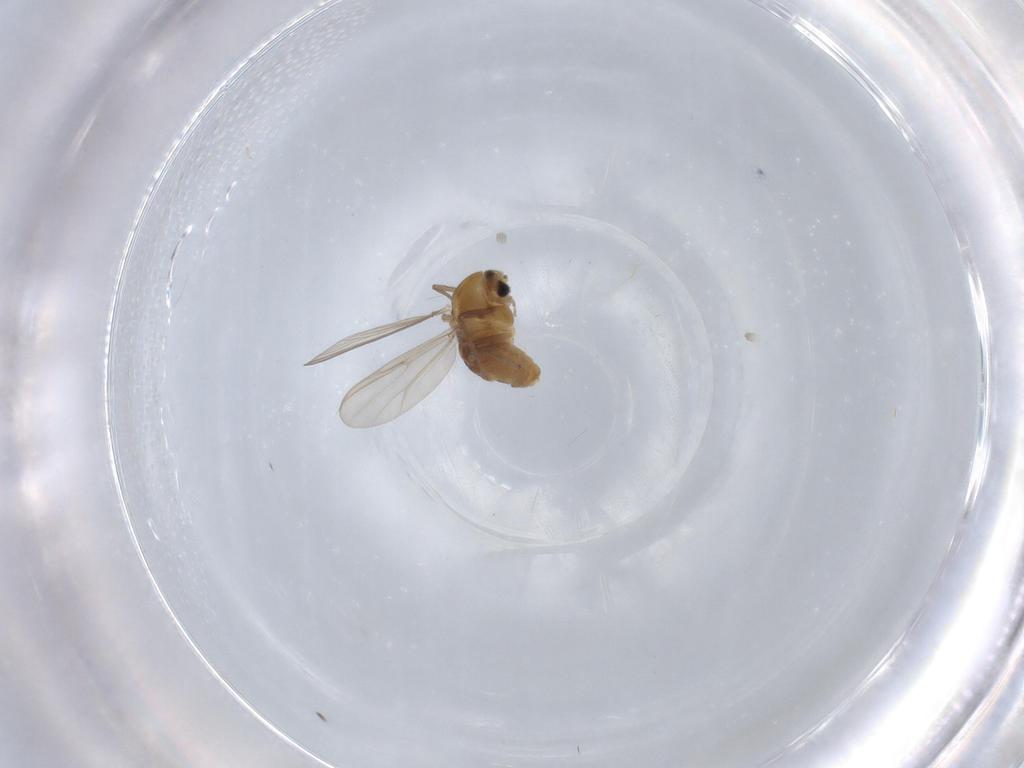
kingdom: Animalia
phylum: Arthropoda
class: Insecta
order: Diptera
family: Chironomidae
